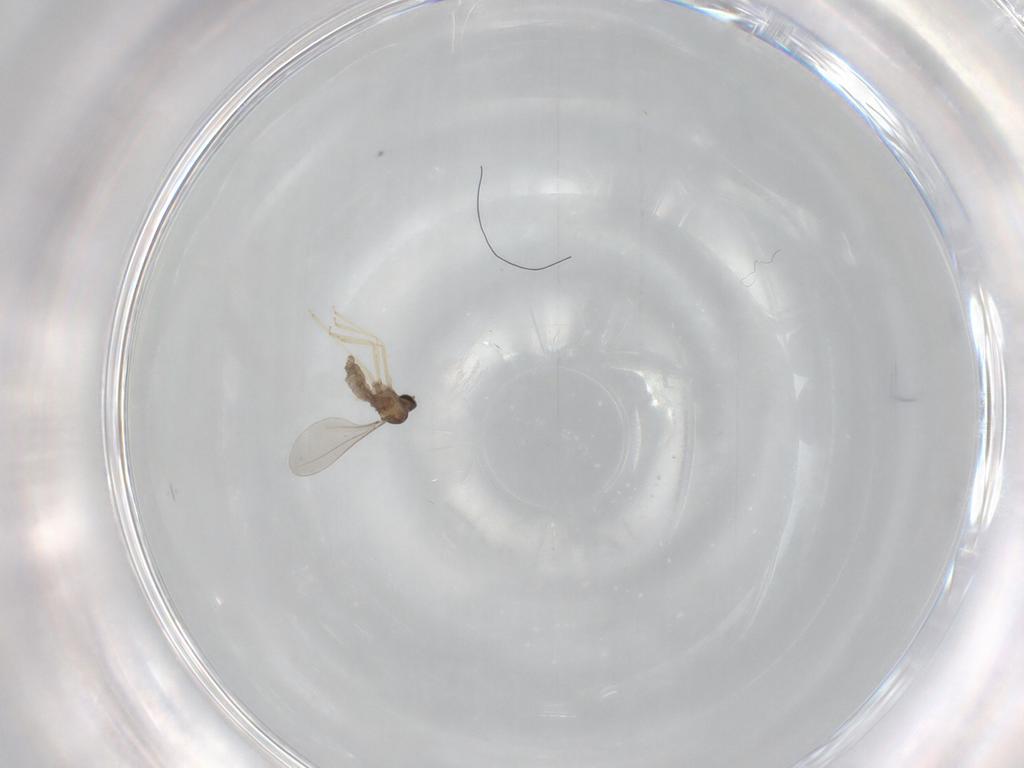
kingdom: Animalia
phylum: Arthropoda
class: Insecta
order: Diptera
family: Cecidomyiidae
